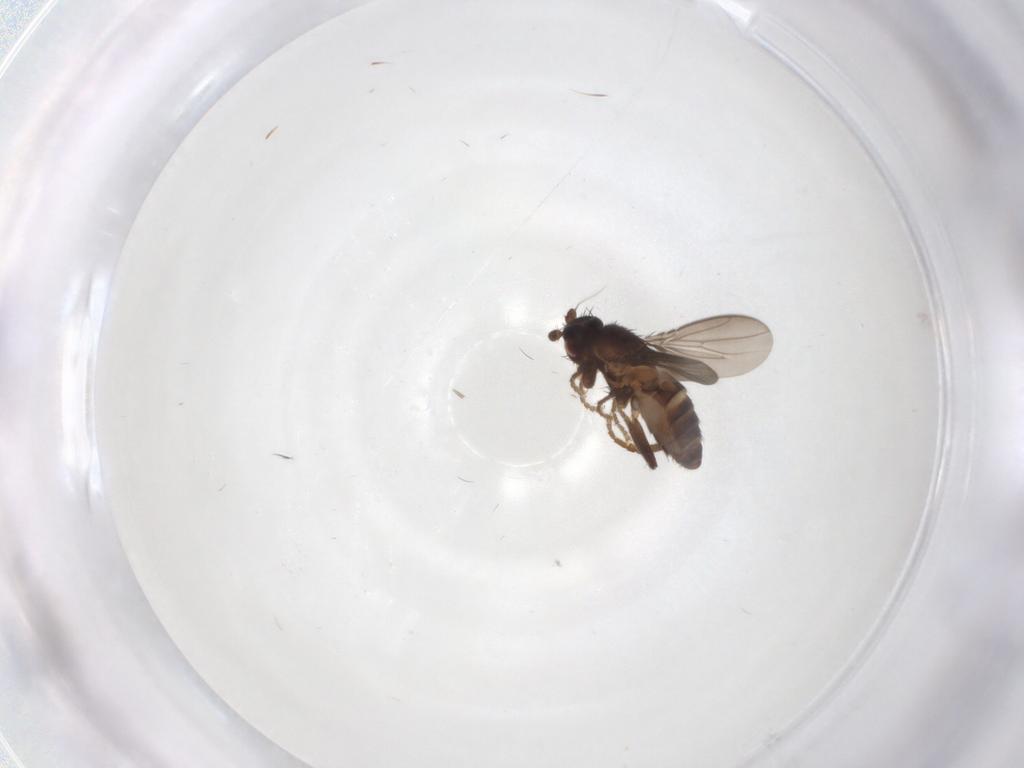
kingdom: Animalia
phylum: Arthropoda
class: Insecta
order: Diptera
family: Sphaeroceridae
